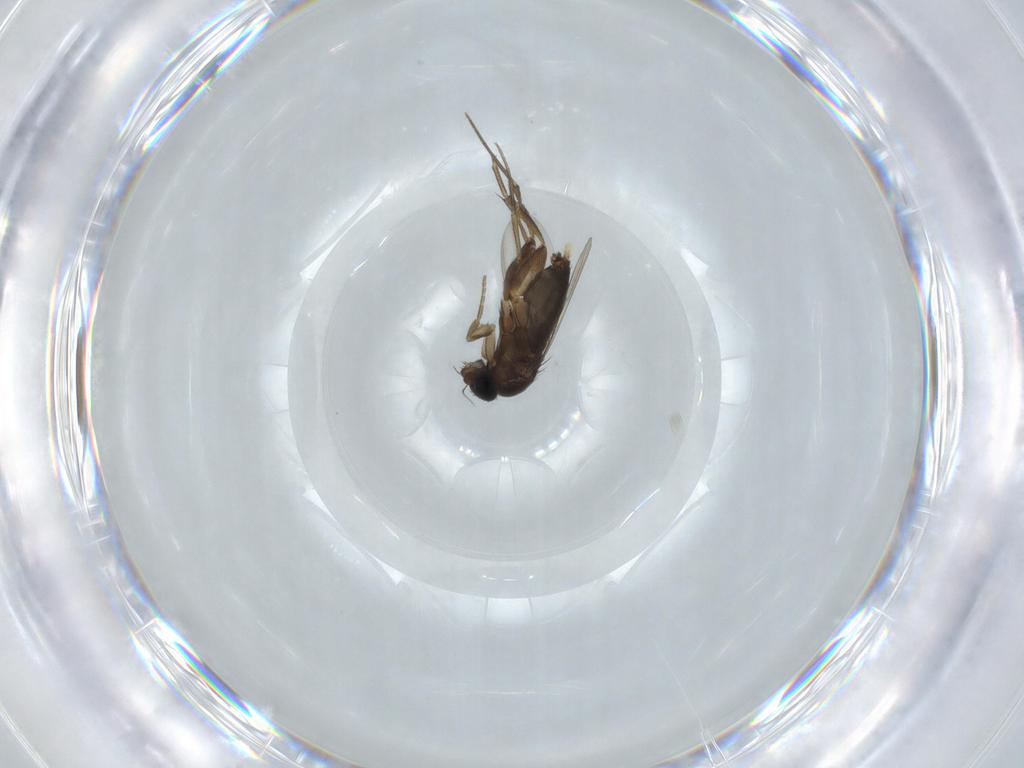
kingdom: Animalia
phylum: Arthropoda
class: Insecta
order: Diptera
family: Phoridae
